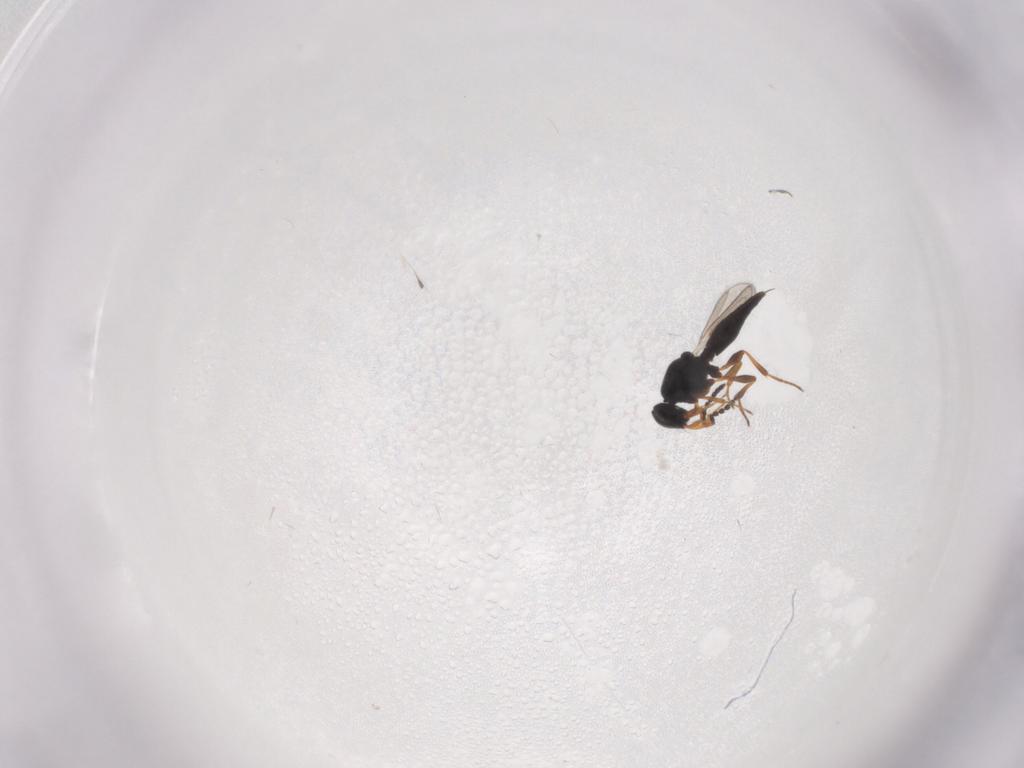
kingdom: Animalia
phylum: Arthropoda
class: Insecta
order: Hymenoptera
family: Platygastridae
